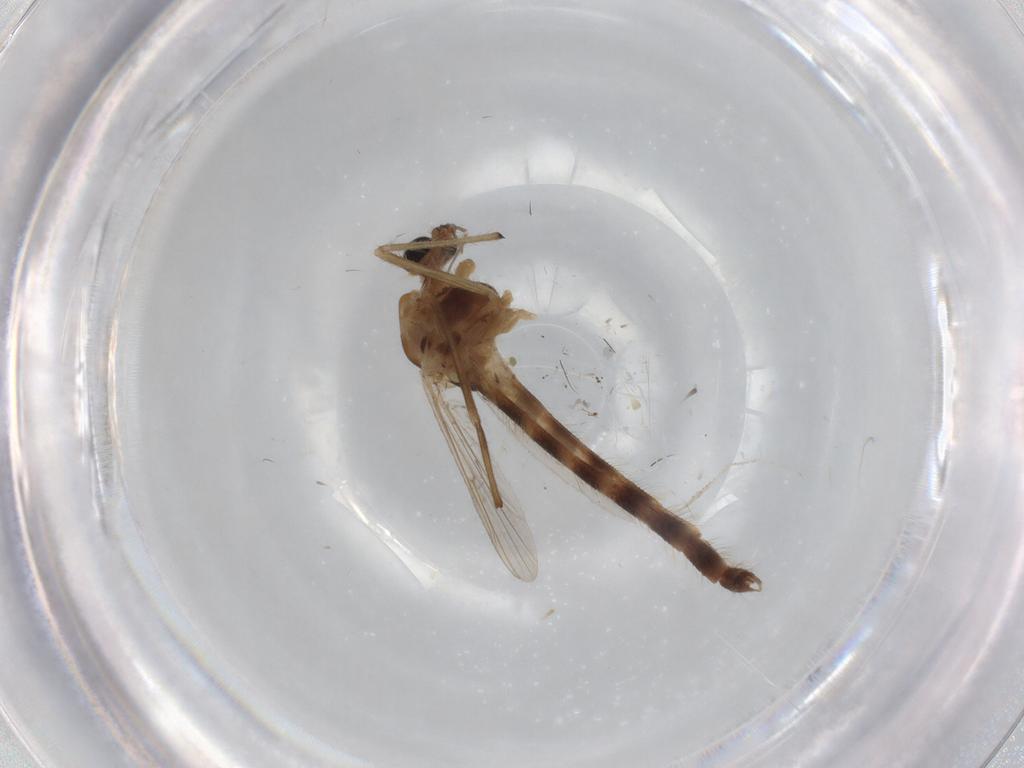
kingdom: Animalia
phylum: Arthropoda
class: Insecta
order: Diptera
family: Chironomidae
